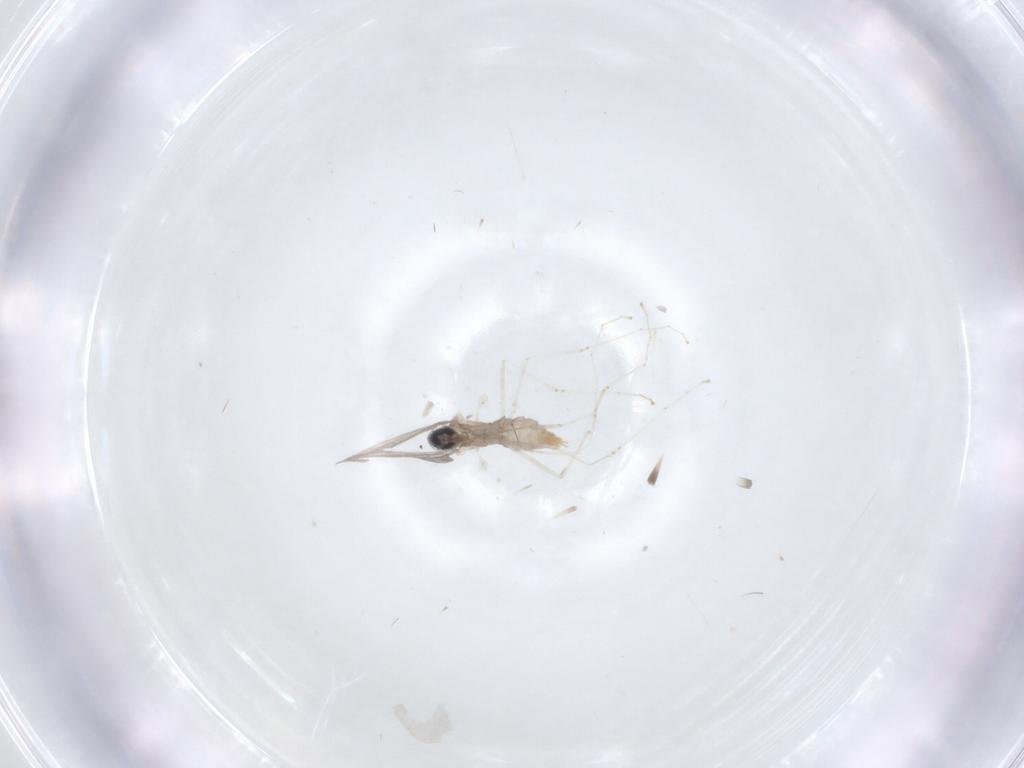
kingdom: Animalia
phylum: Arthropoda
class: Insecta
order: Diptera
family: Cecidomyiidae
